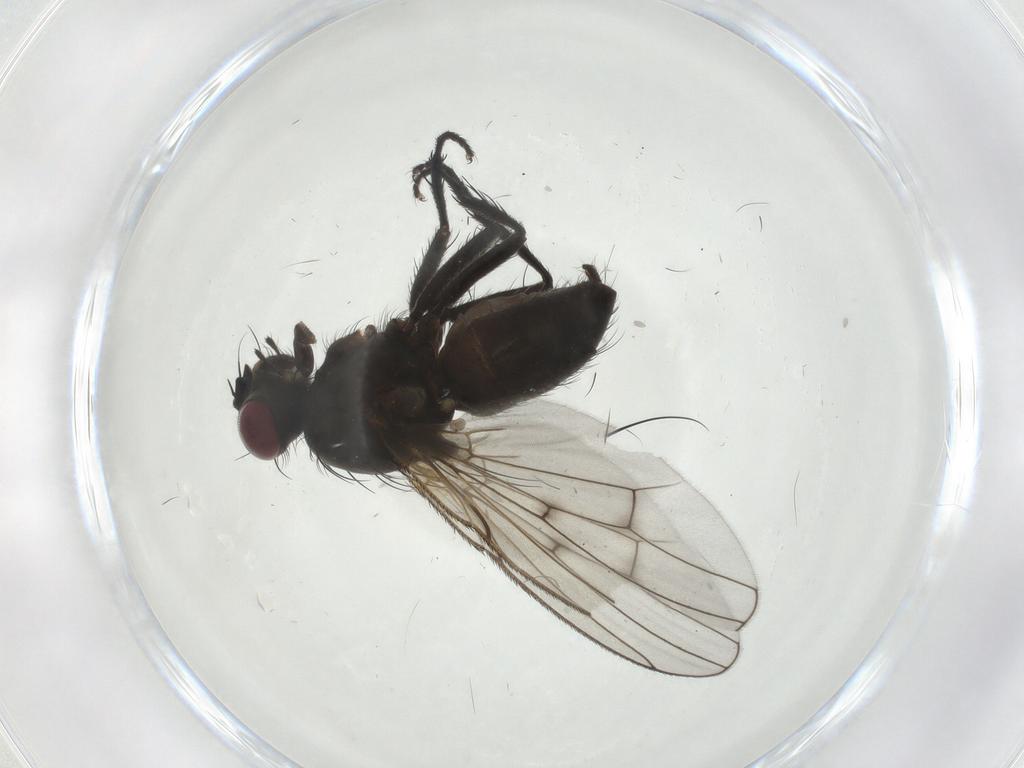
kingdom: Animalia
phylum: Arthropoda
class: Insecta
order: Diptera
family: Muscidae
